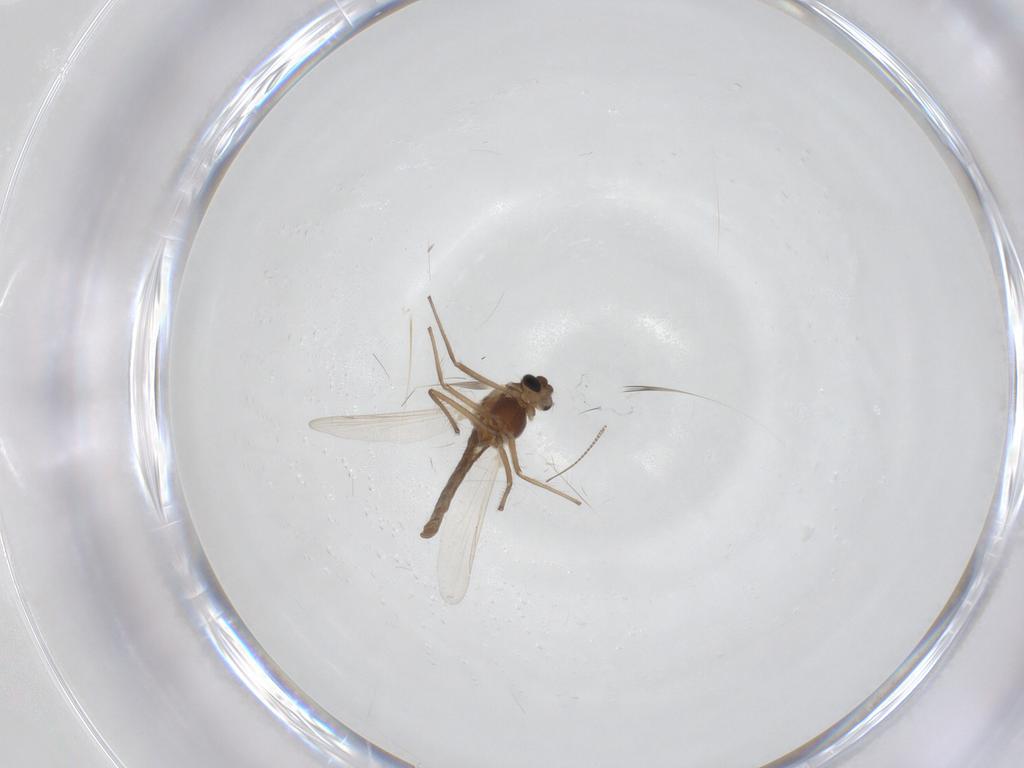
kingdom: Animalia
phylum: Arthropoda
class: Insecta
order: Diptera
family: Chironomidae
